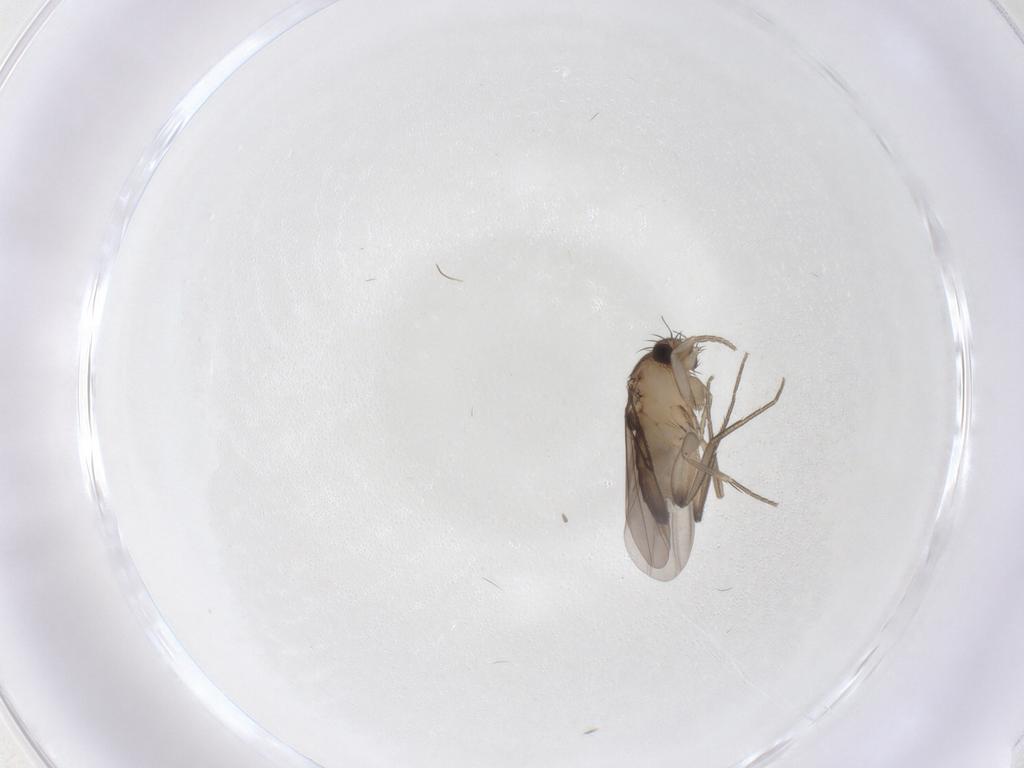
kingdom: Animalia
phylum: Arthropoda
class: Insecta
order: Diptera
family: Phoridae
